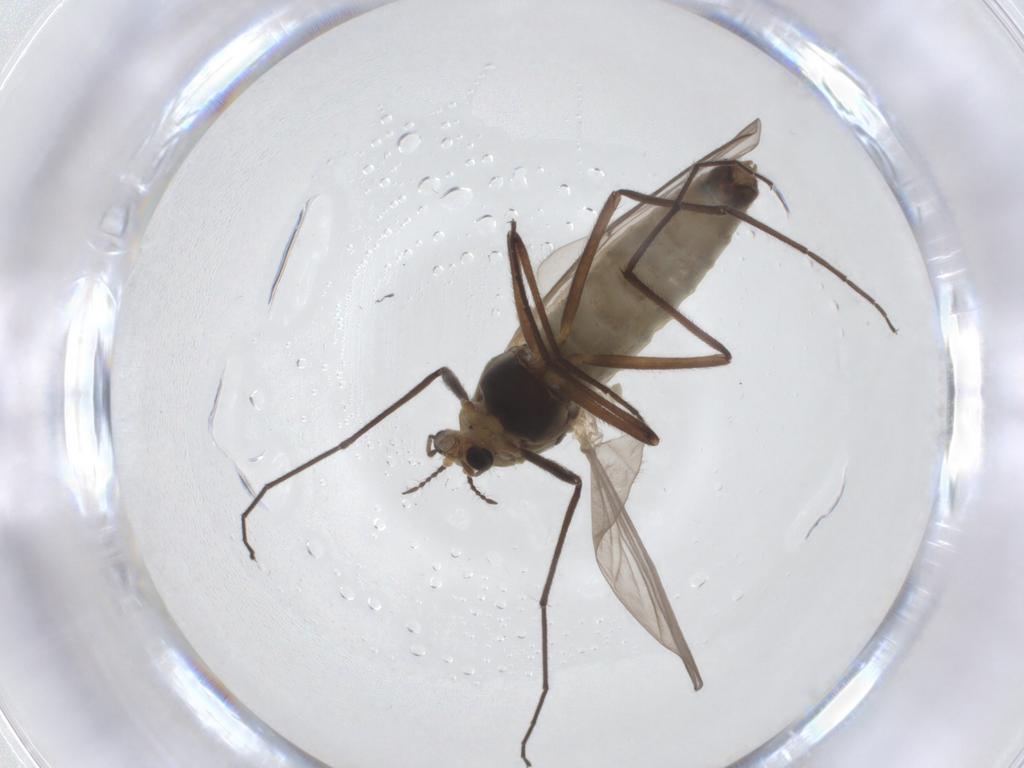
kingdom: Animalia
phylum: Arthropoda
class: Insecta
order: Diptera
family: Sciaridae
